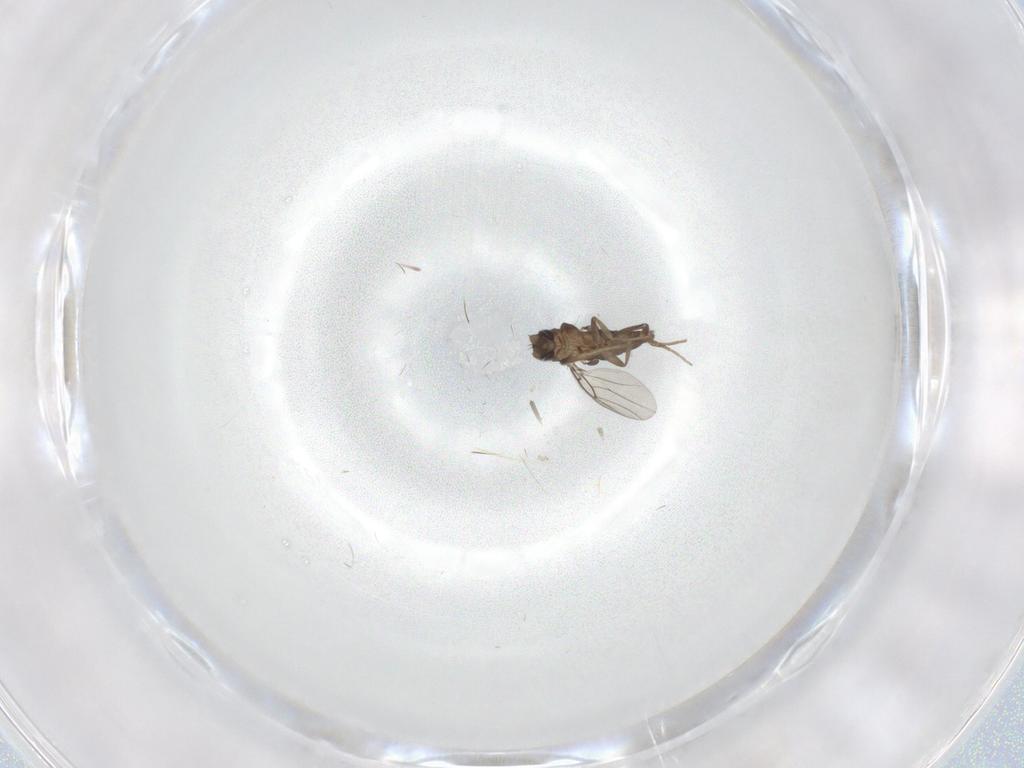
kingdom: Animalia
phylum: Arthropoda
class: Insecta
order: Diptera
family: Phoridae
